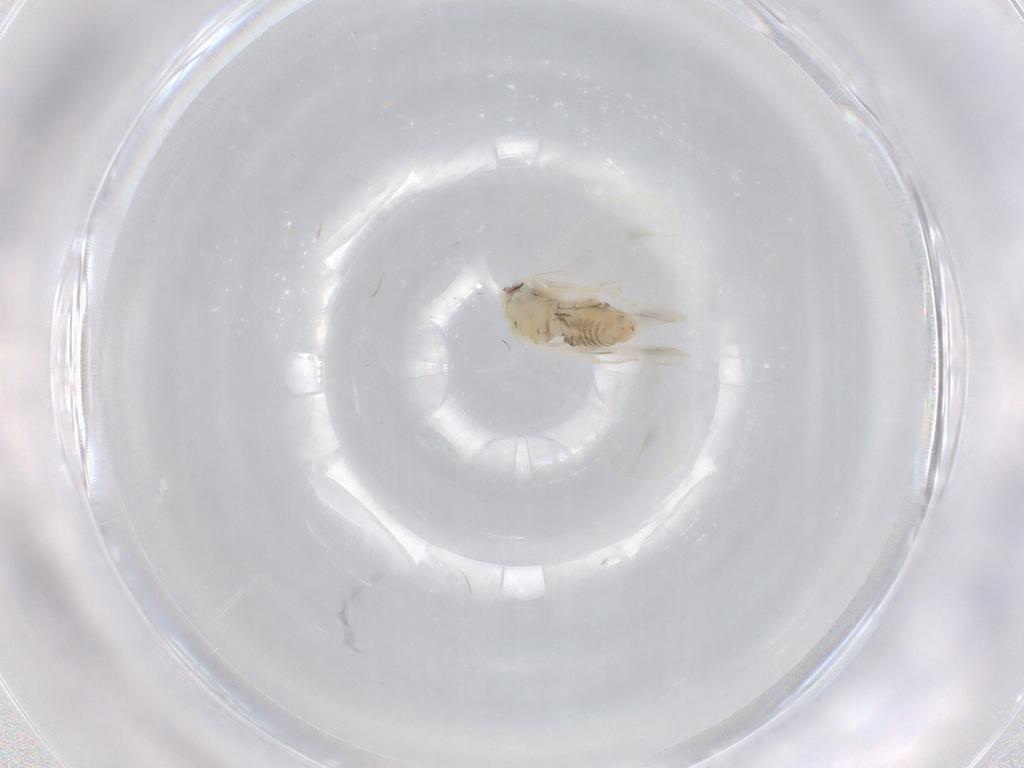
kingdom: Animalia
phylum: Arthropoda
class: Insecta
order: Hemiptera
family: Aleyrodidae
